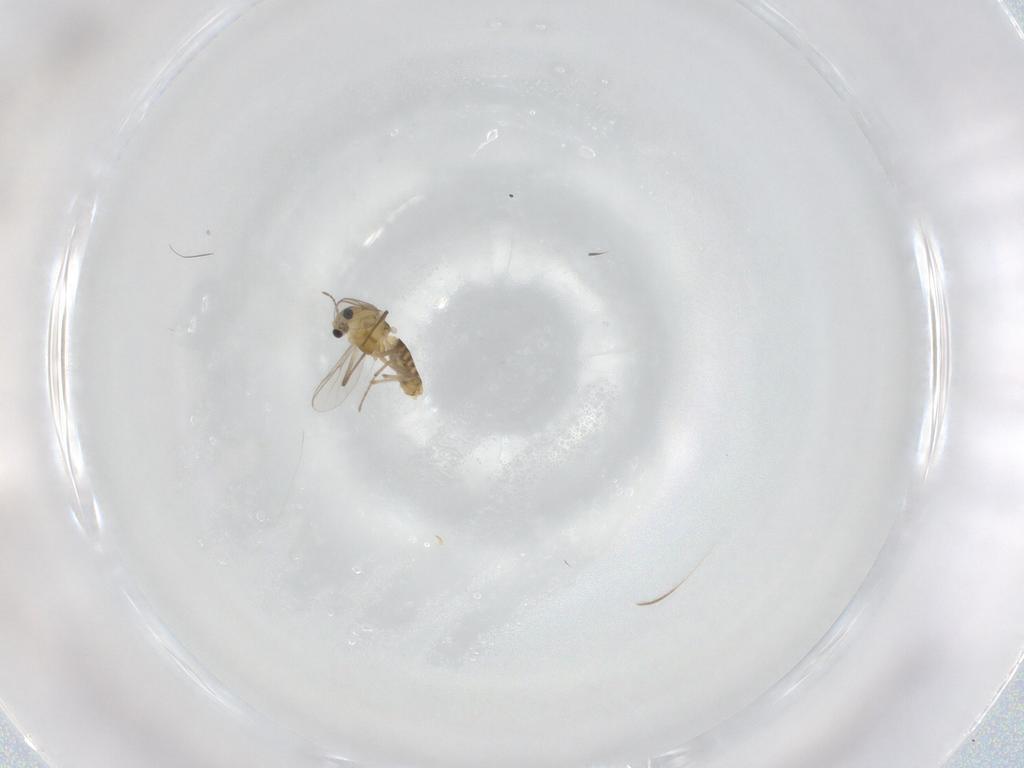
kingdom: Animalia
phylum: Arthropoda
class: Insecta
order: Diptera
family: Chironomidae
